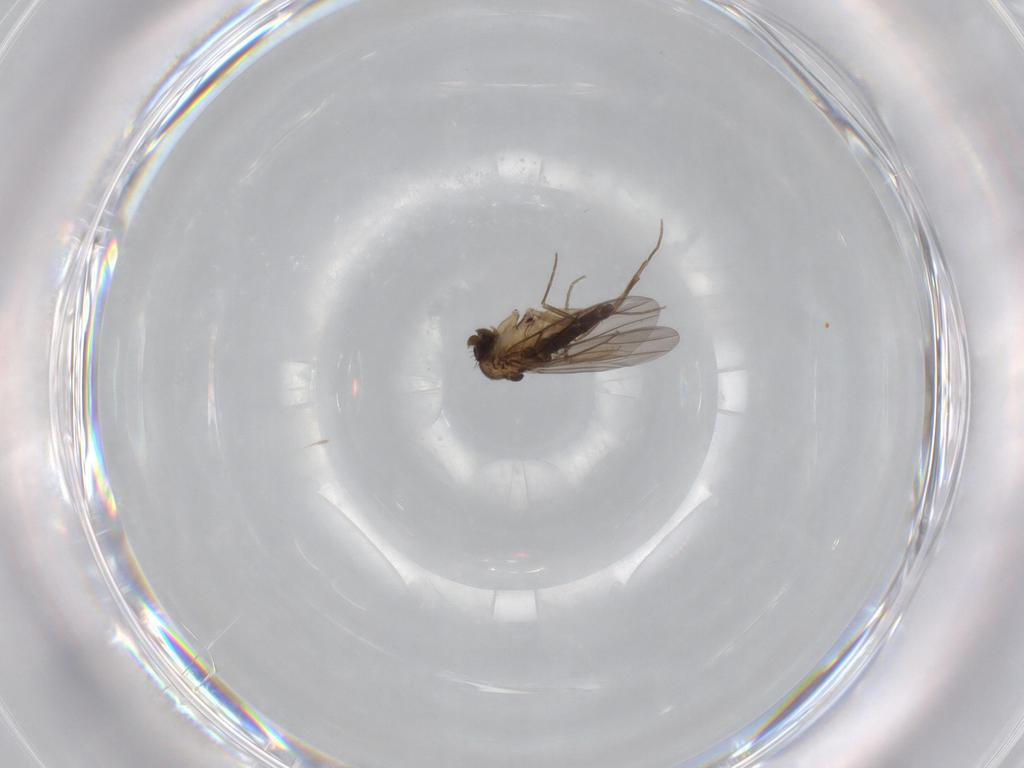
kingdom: Animalia
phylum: Arthropoda
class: Insecta
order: Diptera
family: Phoridae
